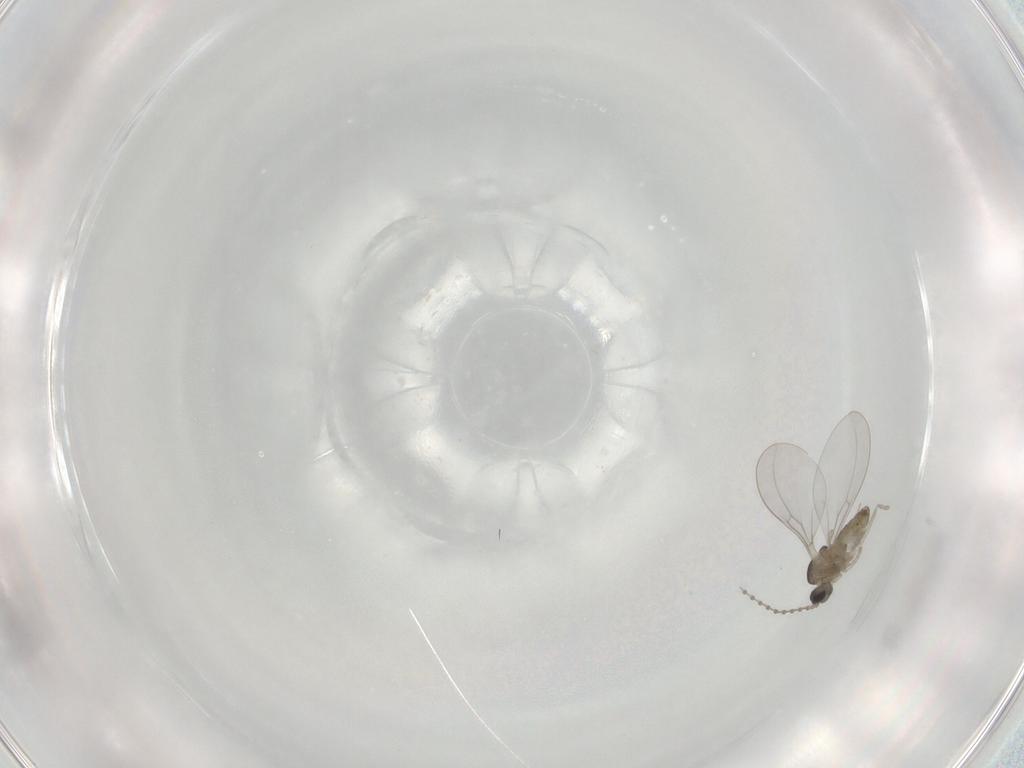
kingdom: Animalia
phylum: Arthropoda
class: Insecta
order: Diptera
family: Cecidomyiidae
